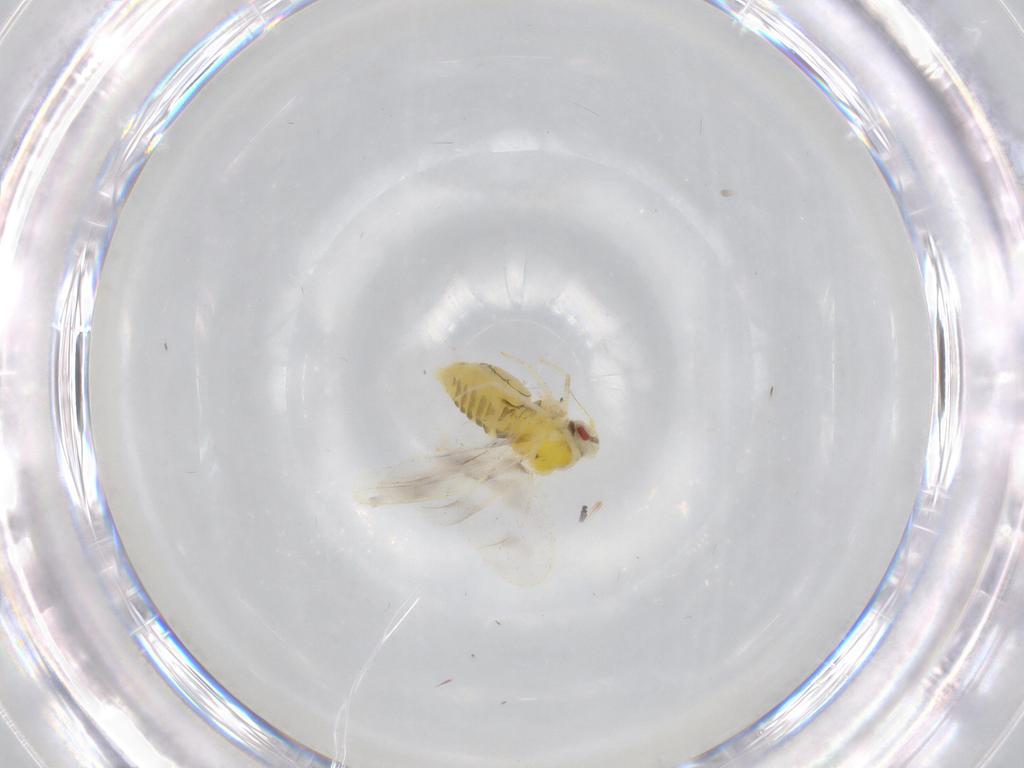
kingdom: Animalia
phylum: Arthropoda
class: Insecta
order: Hemiptera
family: Aleyrodidae
